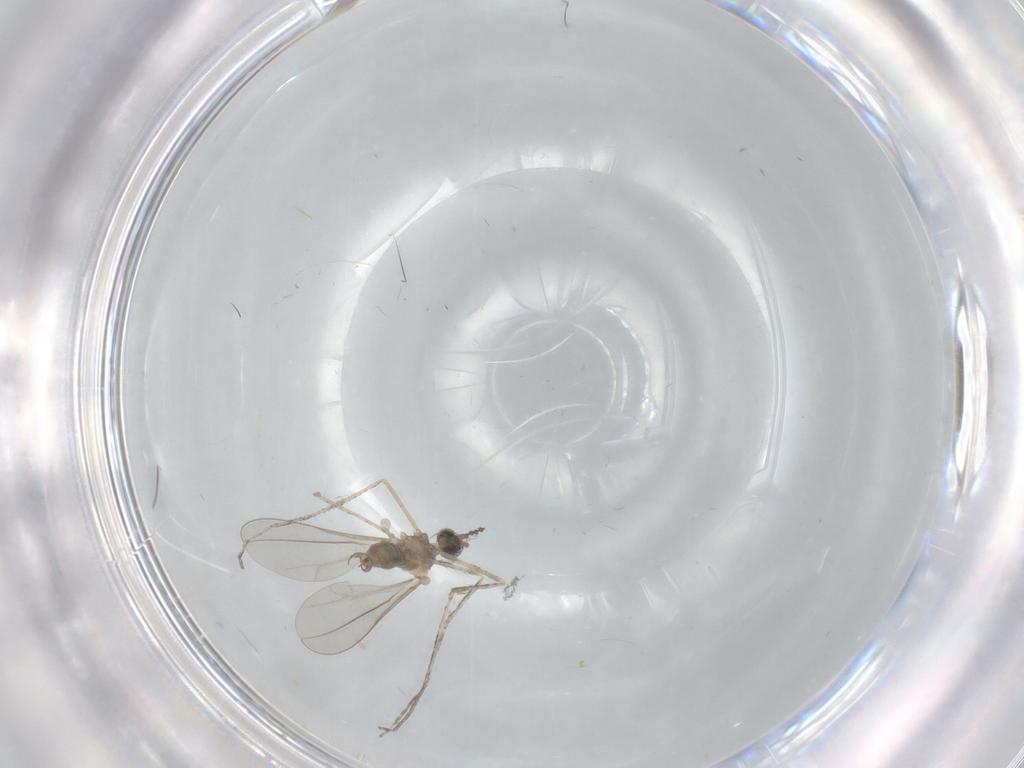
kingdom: Animalia
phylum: Arthropoda
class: Insecta
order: Diptera
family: Cecidomyiidae
